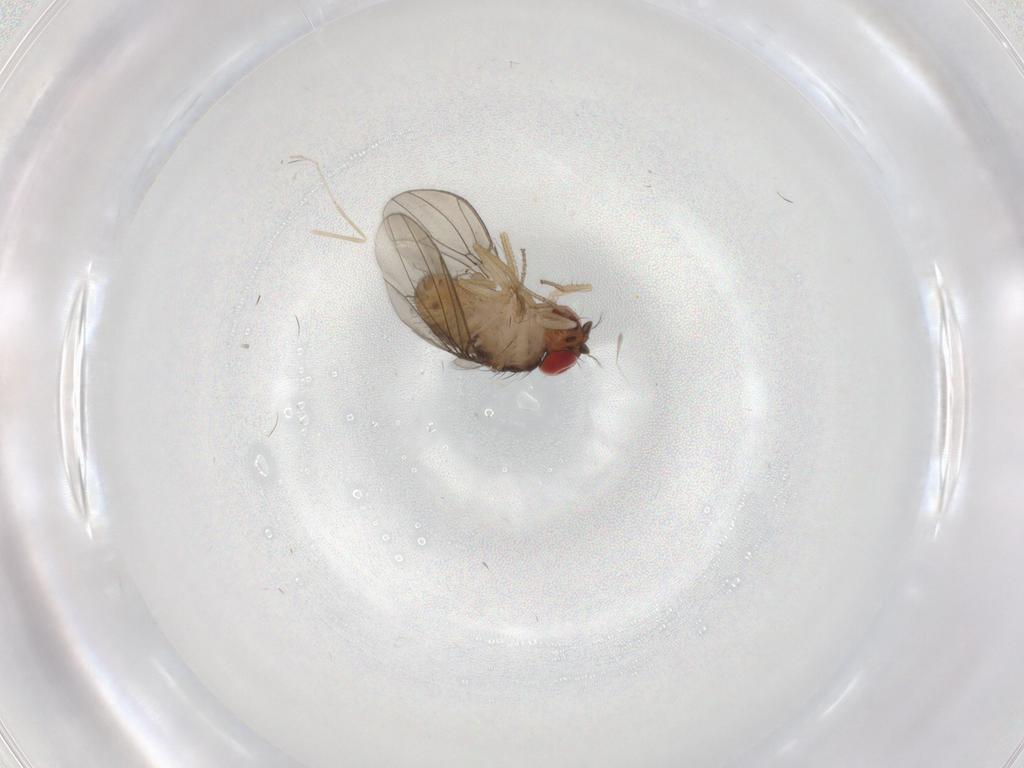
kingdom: Animalia
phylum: Arthropoda
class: Insecta
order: Diptera
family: Drosophilidae
